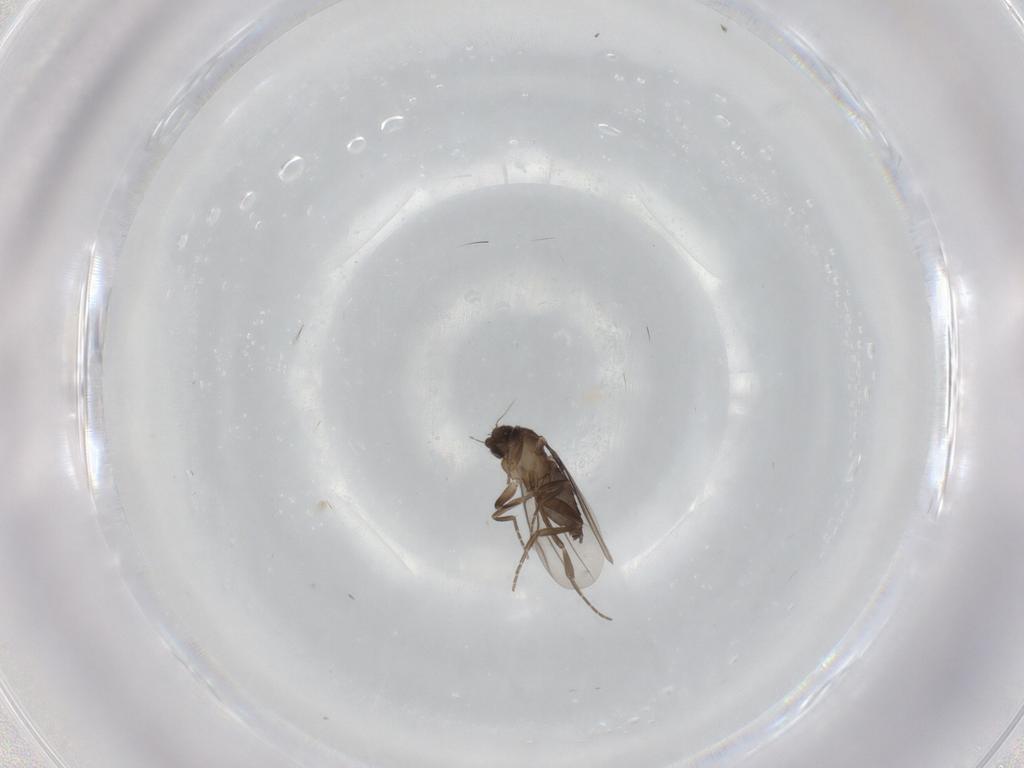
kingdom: Animalia
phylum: Arthropoda
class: Insecta
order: Diptera
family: Phoridae
